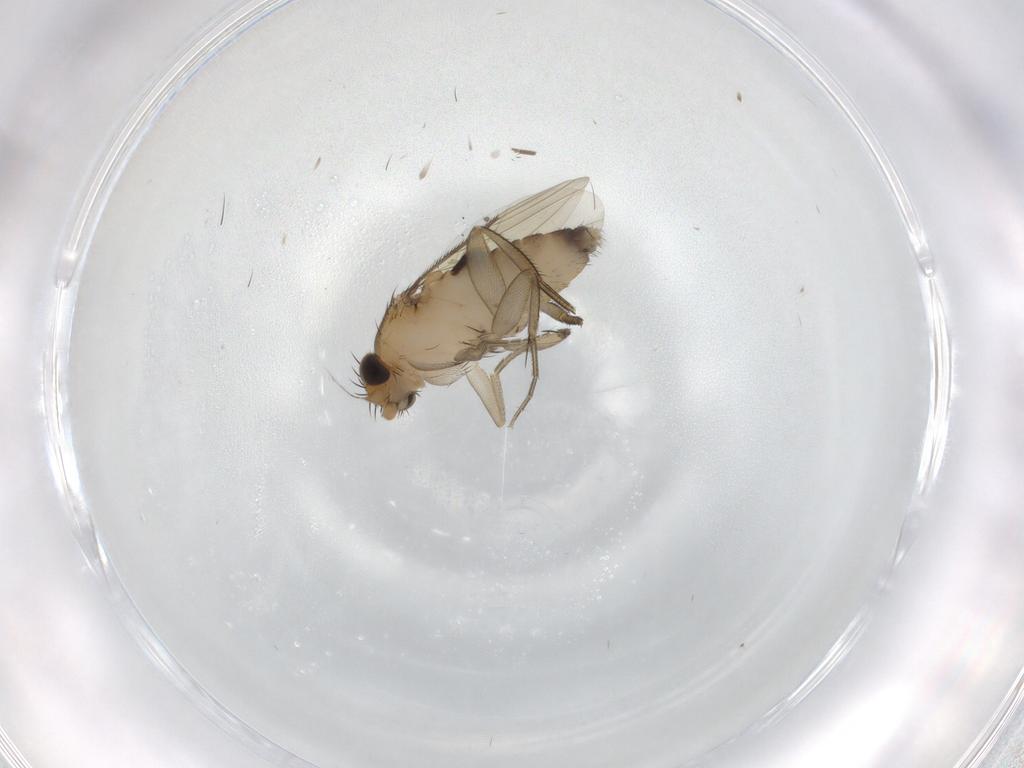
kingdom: Animalia
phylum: Arthropoda
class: Insecta
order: Diptera
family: Phoridae
